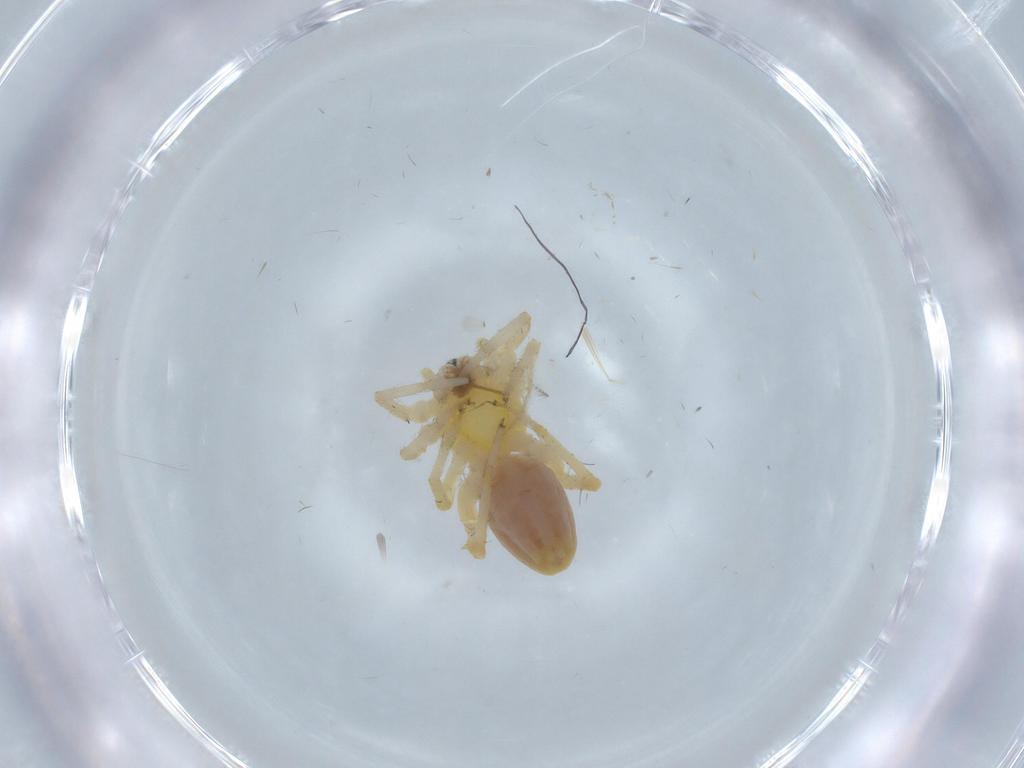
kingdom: Animalia
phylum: Arthropoda
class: Arachnida
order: Araneae
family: Anyphaenidae
